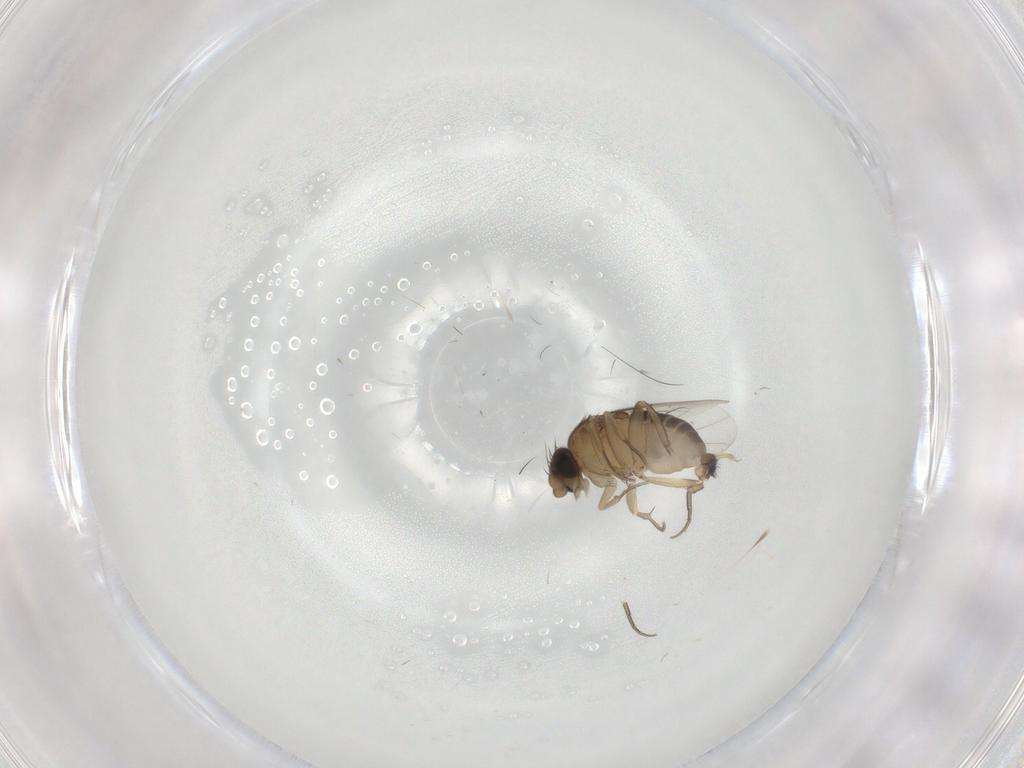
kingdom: Animalia
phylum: Arthropoda
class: Insecta
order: Diptera
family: Phoridae
